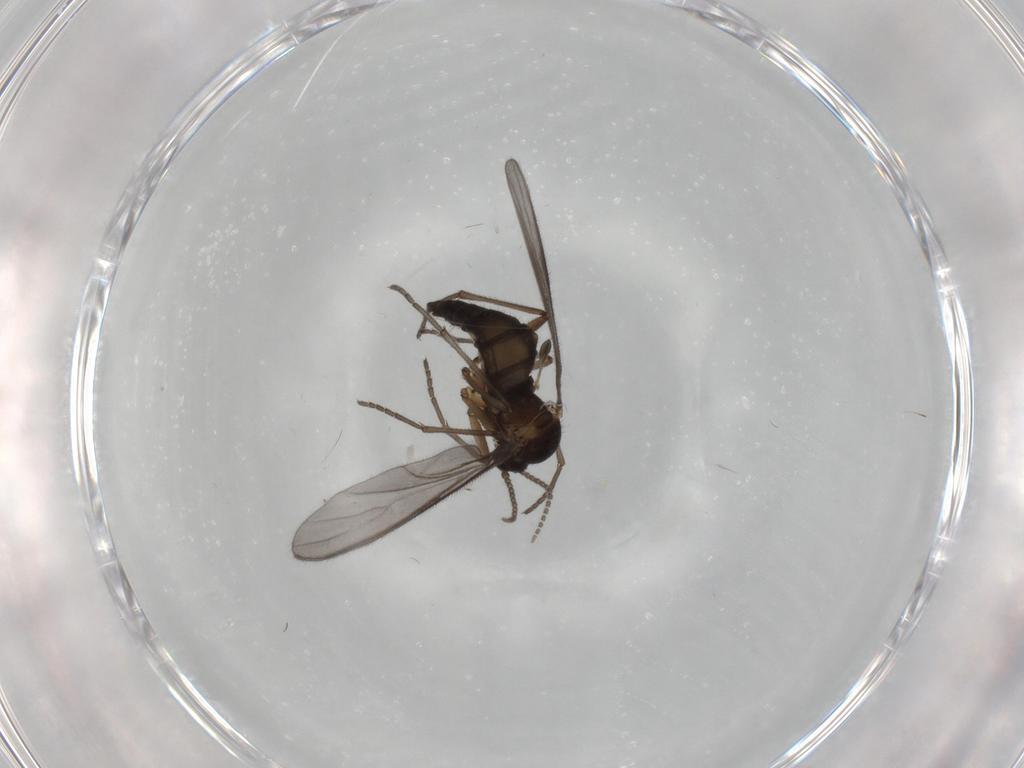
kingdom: Animalia
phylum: Arthropoda
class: Insecta
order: Diptera
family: Sciaridae
